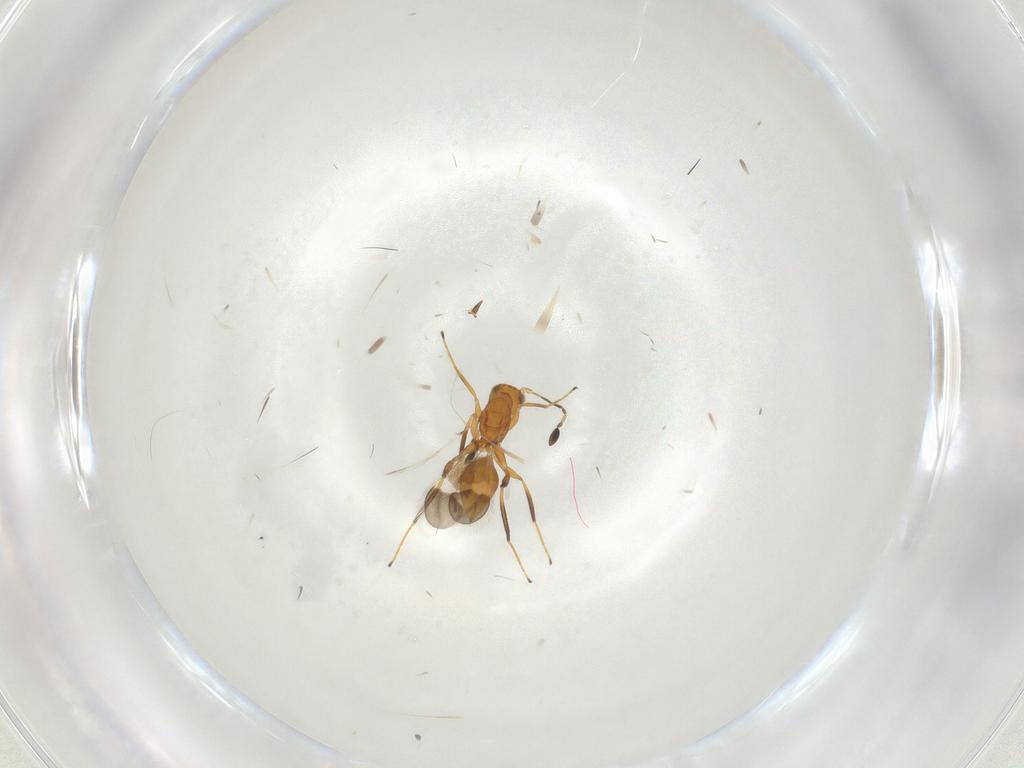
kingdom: Animalia
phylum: Arthropoda
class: Insecta
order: Hymenoptera
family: Mymaridae
